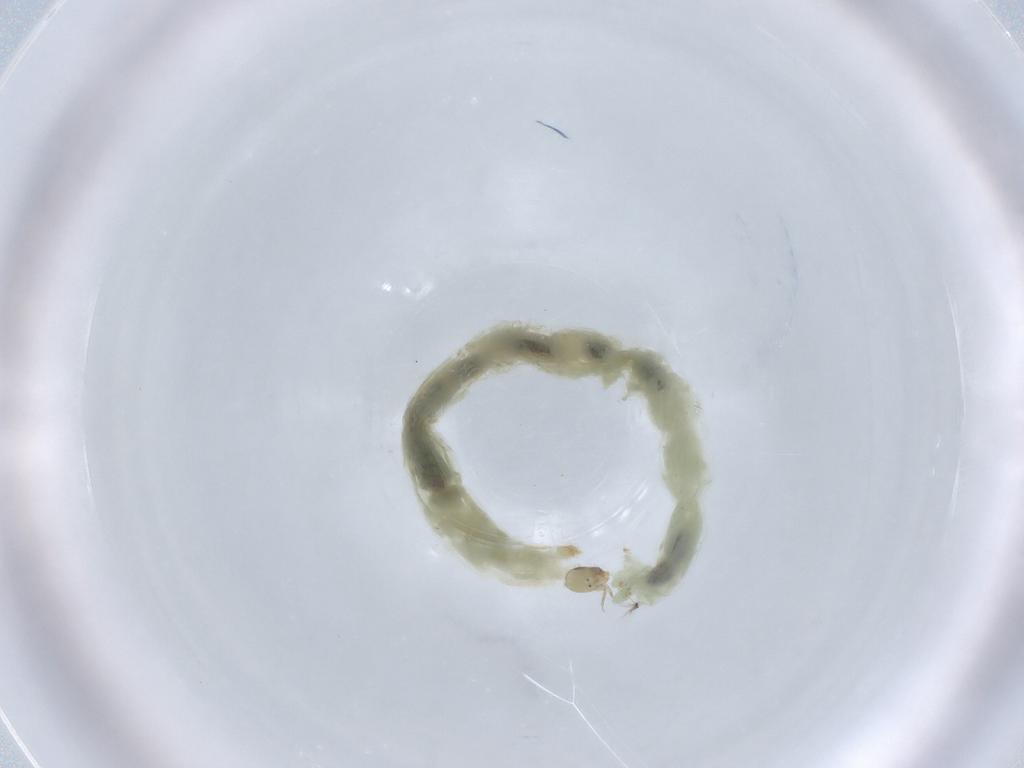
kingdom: Animalia
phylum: Arthropoda
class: Insecta
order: Diptera
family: Chironomidae
